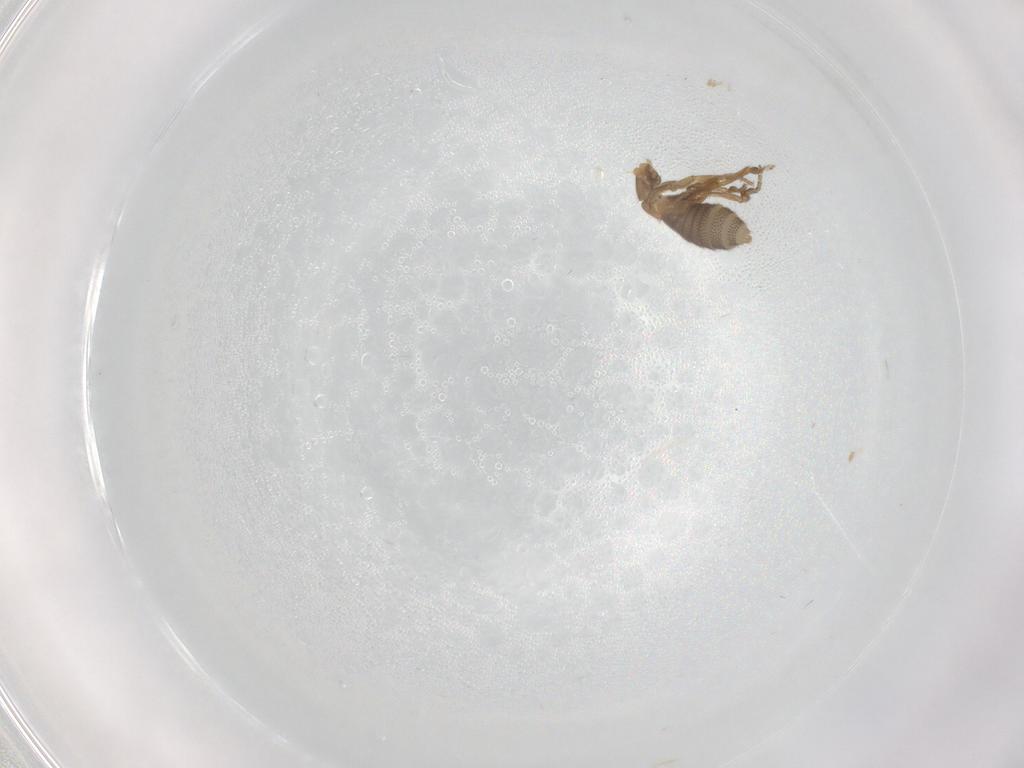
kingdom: Animalia
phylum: Arthropoda
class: Insecta
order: Diptera
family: Phoridae
